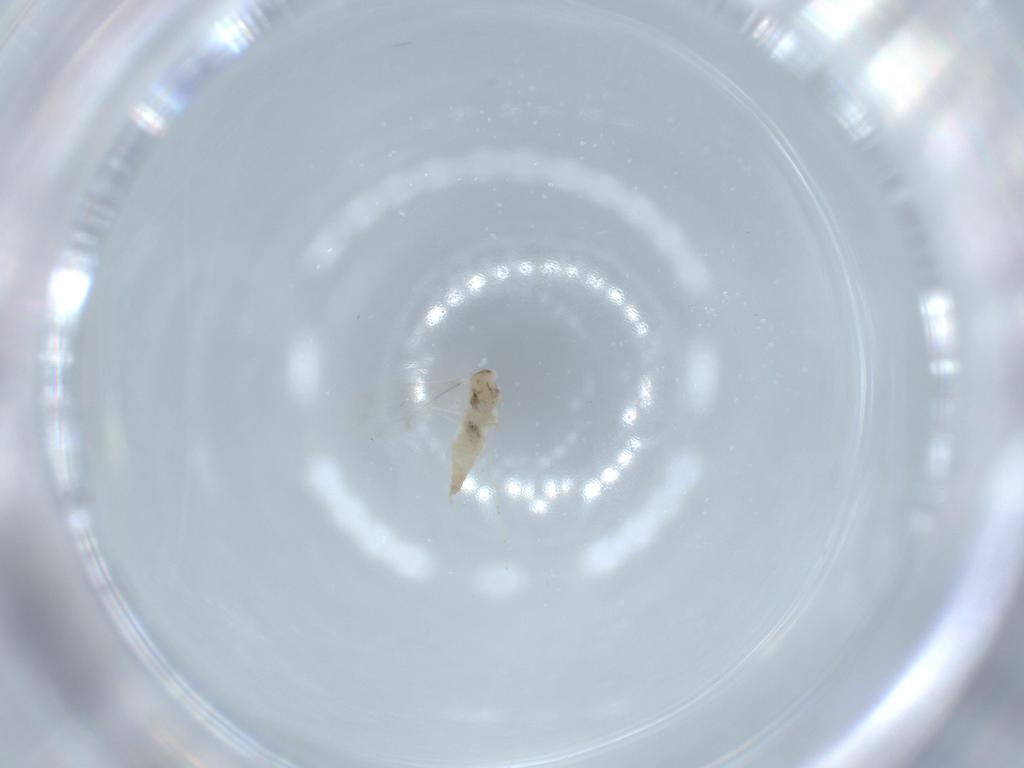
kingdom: Animalia
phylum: Arthropoda
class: Insecta
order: Diptera
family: Cecidomyiidae
